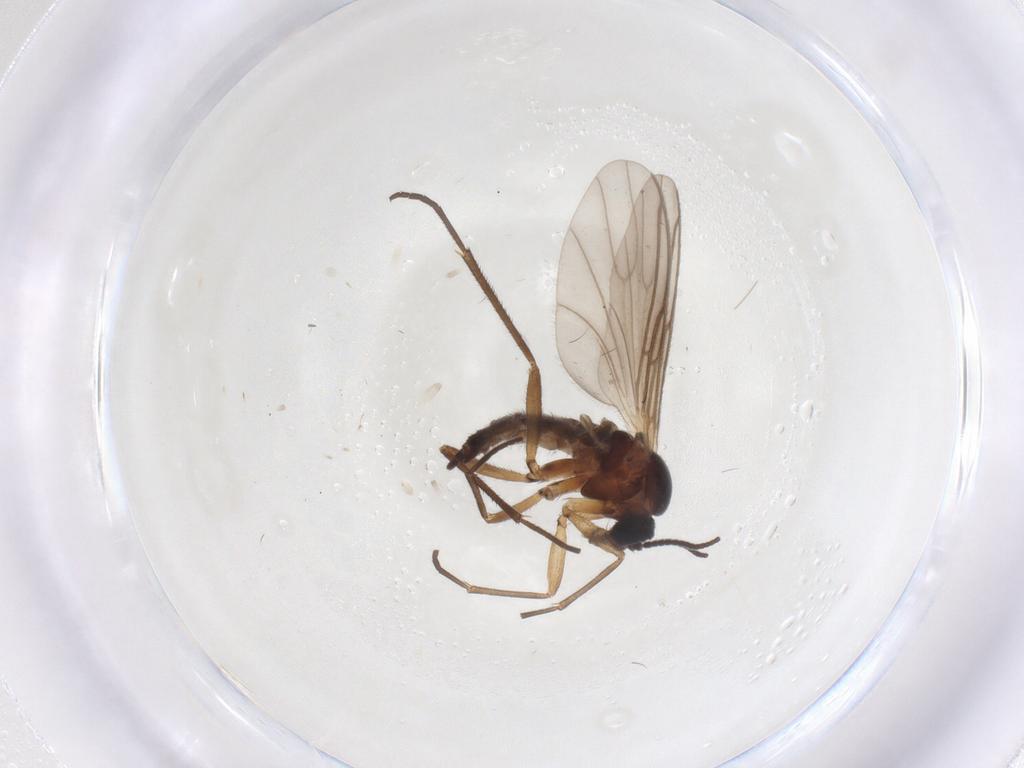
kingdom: Animalia
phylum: Arthropoda
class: Insecta
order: Diptera
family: Sciaridae
